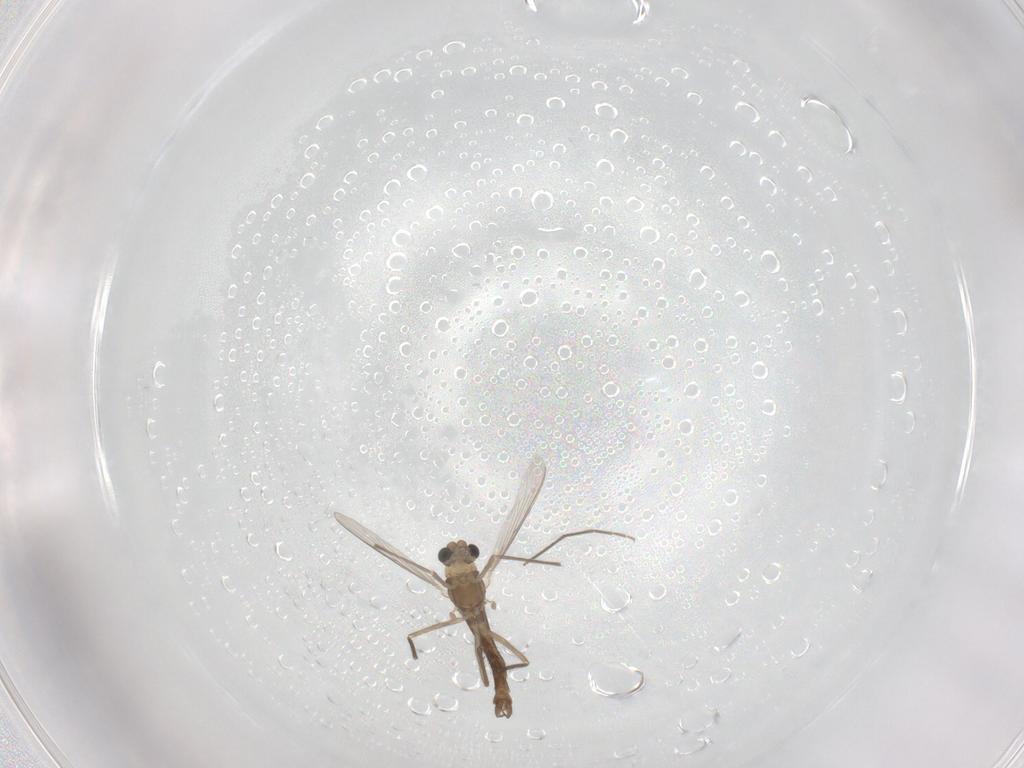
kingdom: Animalia
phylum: Arthropoda
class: Insecta
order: Diptera
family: Chironomidae
